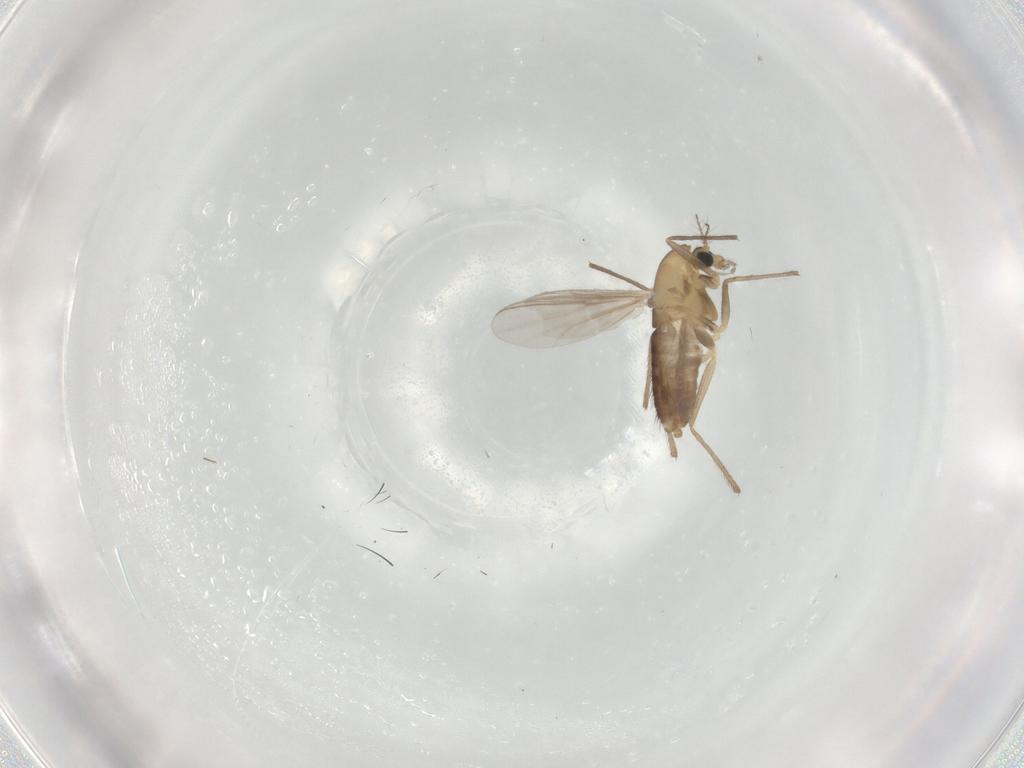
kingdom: Animalia
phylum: Arthropoda
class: Insecta
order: Diptera
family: Chironomidae
